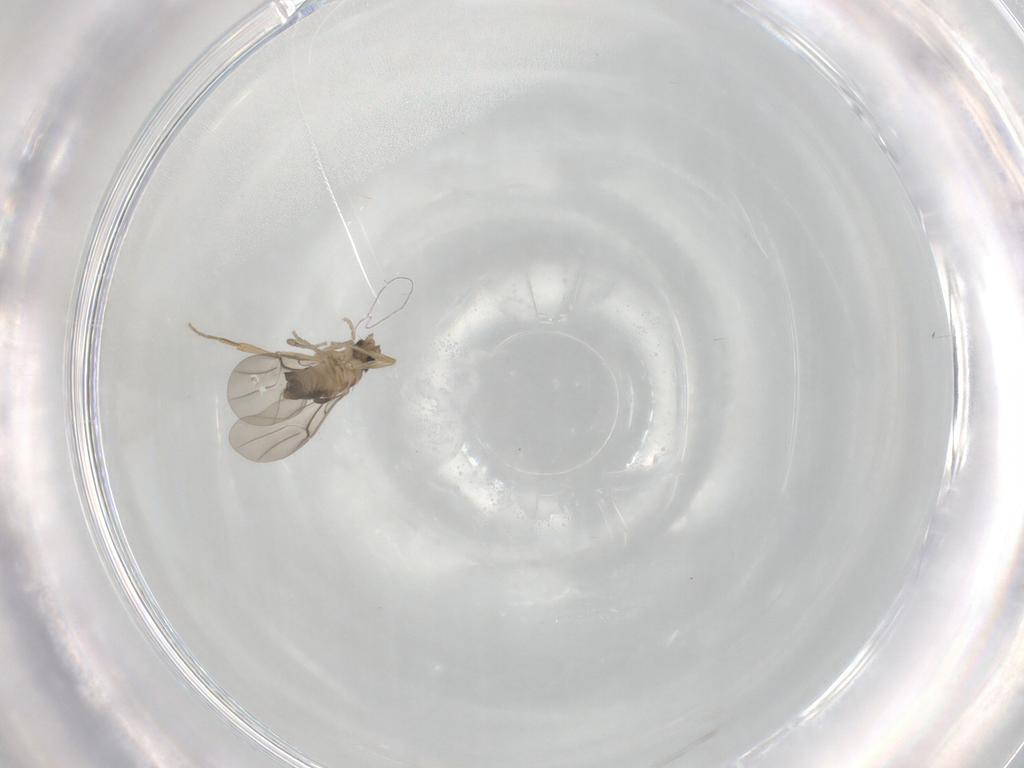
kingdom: Animalia
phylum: Arthropoda
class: Insecta
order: Diptera
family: Phoridae
